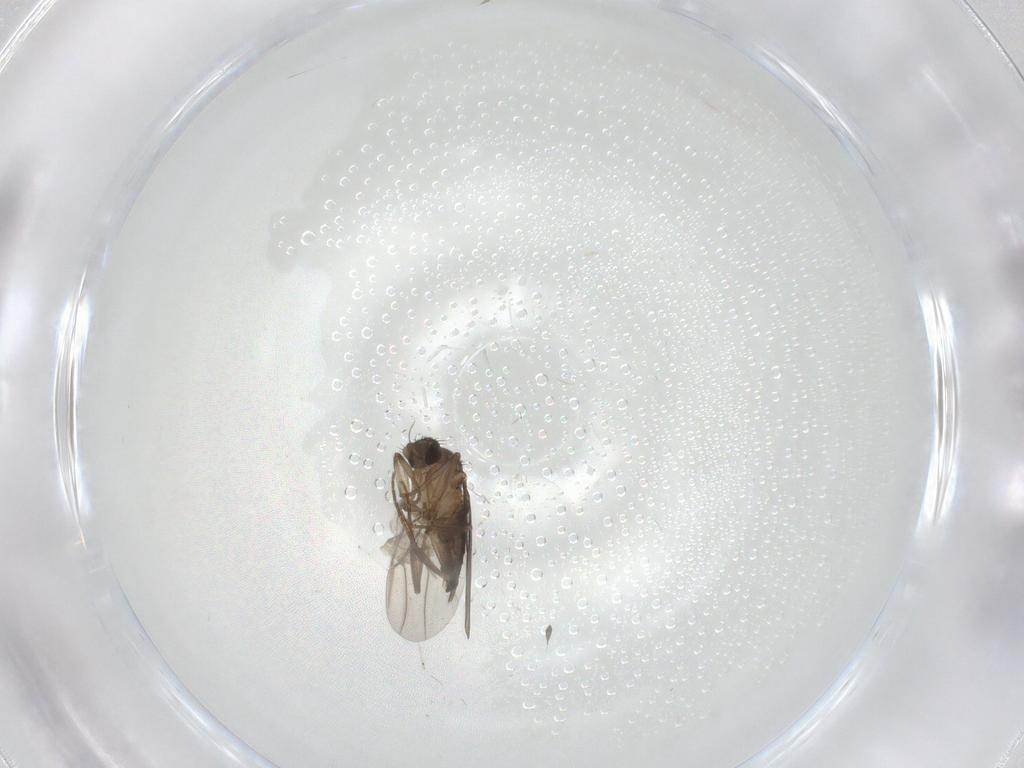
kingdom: Animalia
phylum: Arthropoda
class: Insecta
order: Diptera
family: Phoridae
